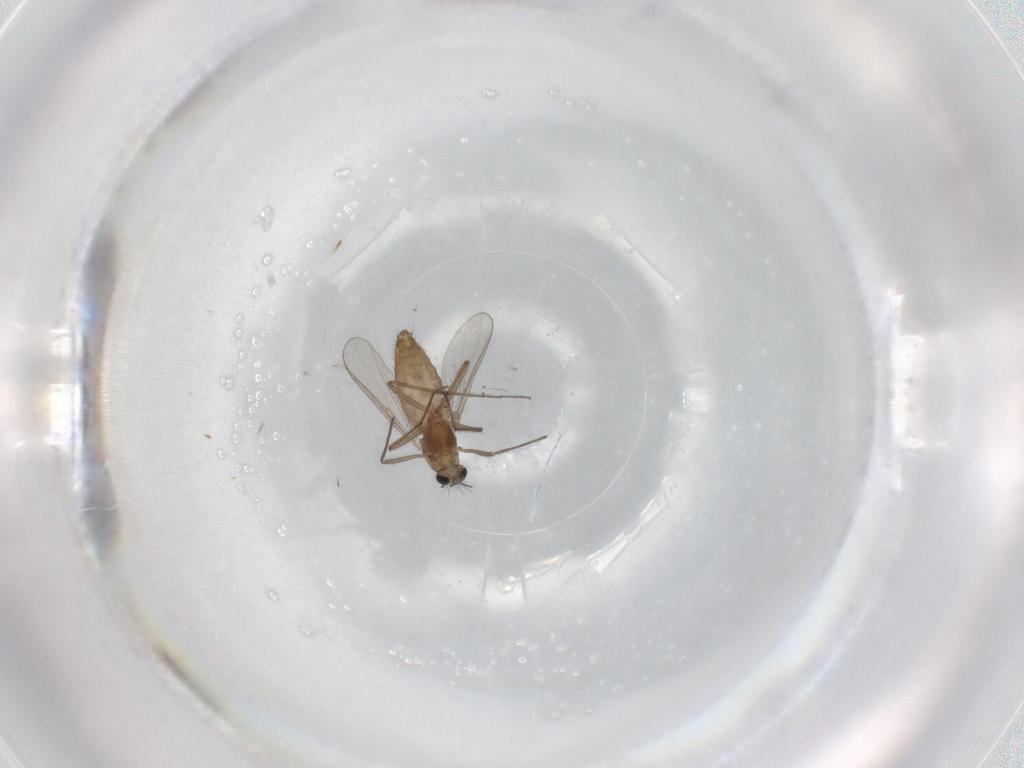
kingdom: Animalia
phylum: Arthropoda
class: Insecta
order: Diptera
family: Chironomidae
